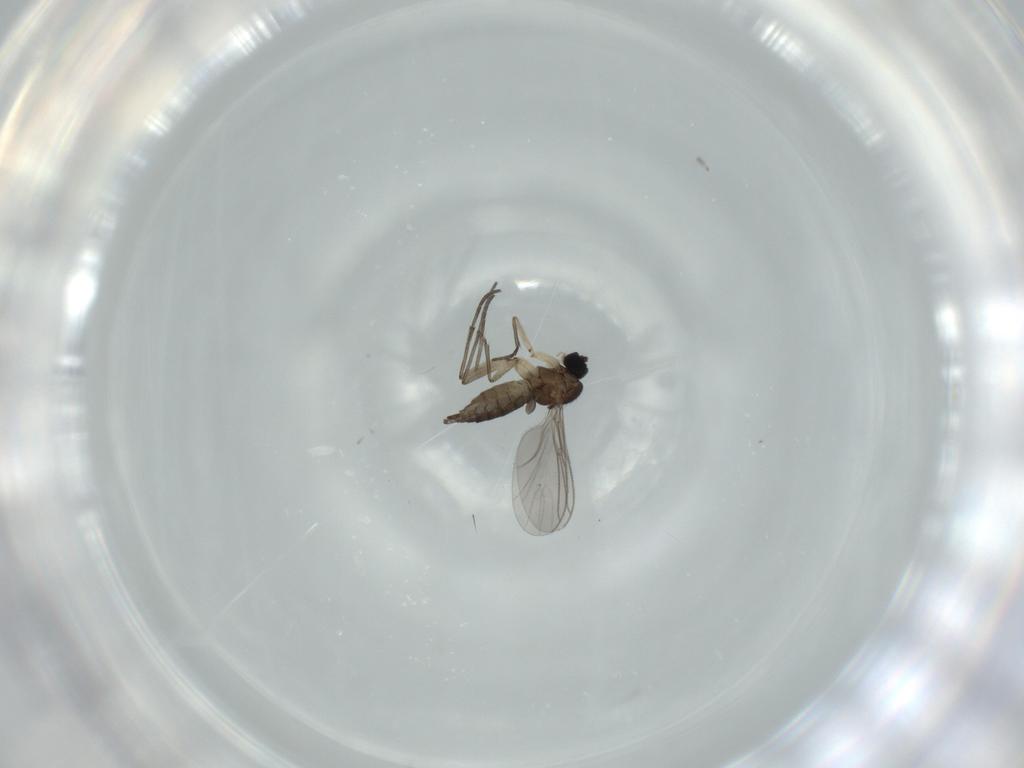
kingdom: Animalia
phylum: Arthropoda
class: Insecta
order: Diptera
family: Sciaridae
